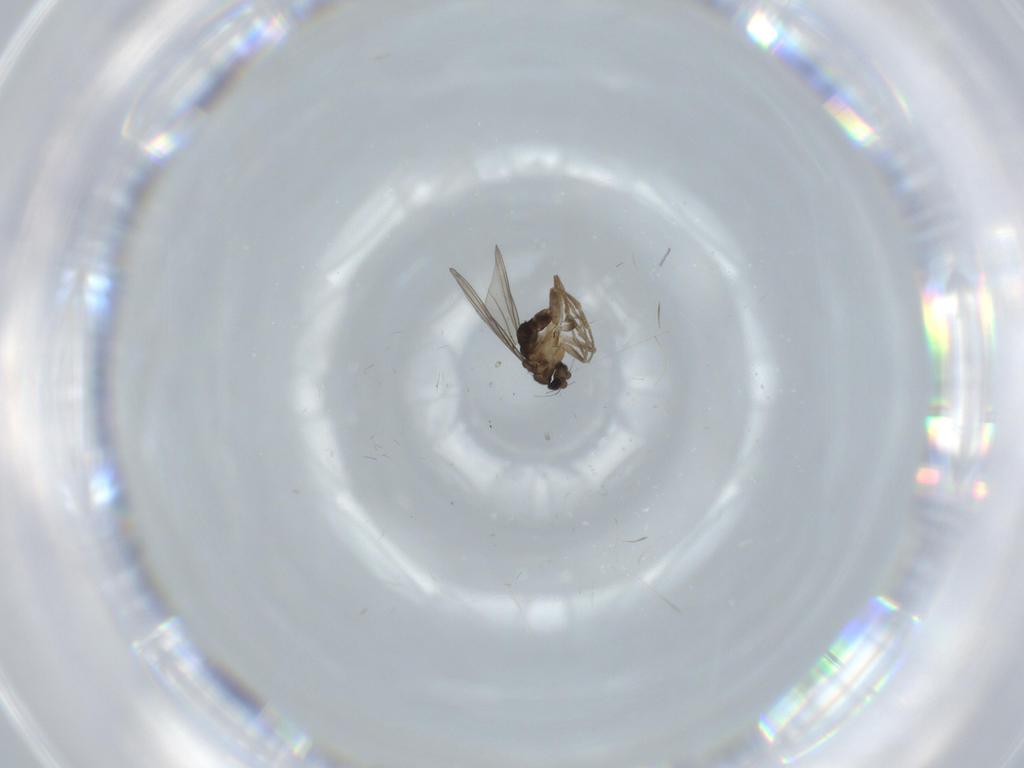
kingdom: Animalia
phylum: Arthropoda
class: Insecta
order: Diptera
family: Phoridae
